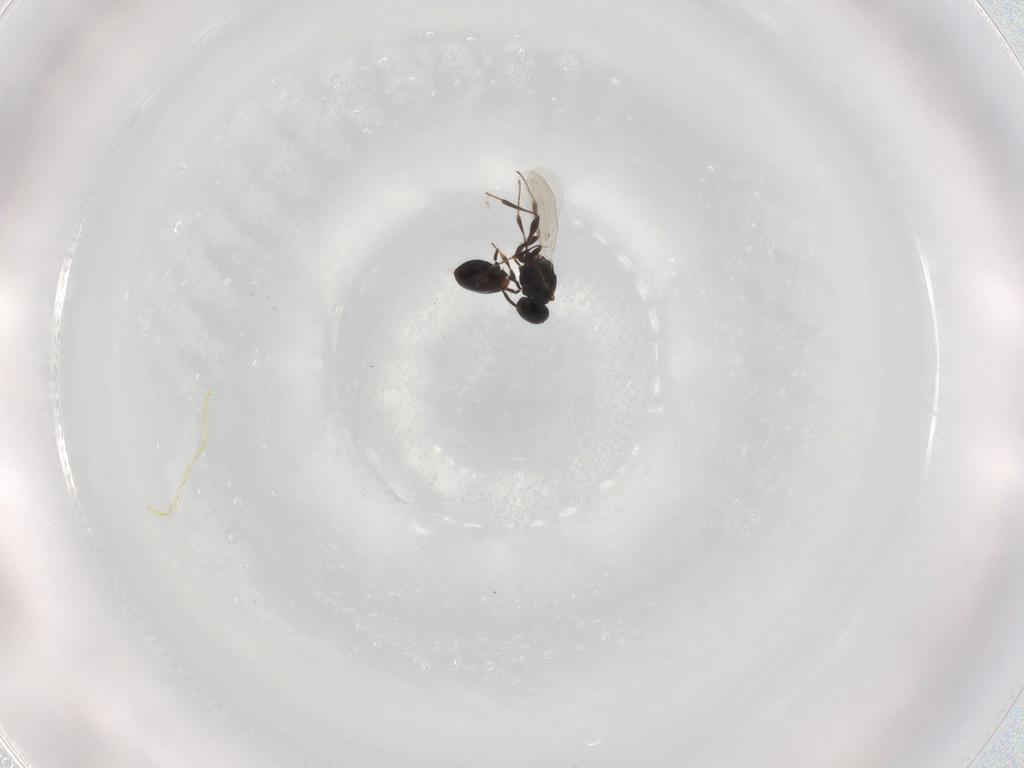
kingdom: Animalia
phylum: Arthropoda
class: Insecta
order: Hymenoptera
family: Platygastridae
